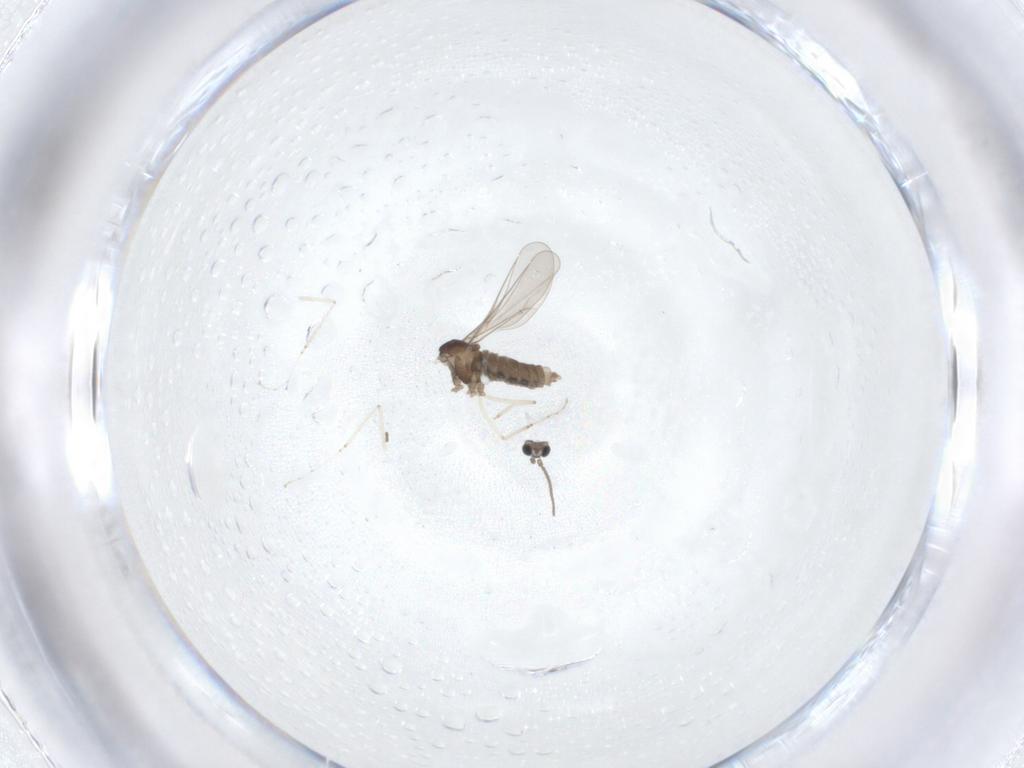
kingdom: Animalia
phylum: Arthropoda
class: Insecta
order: Diptera
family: Cecidomyiidae
